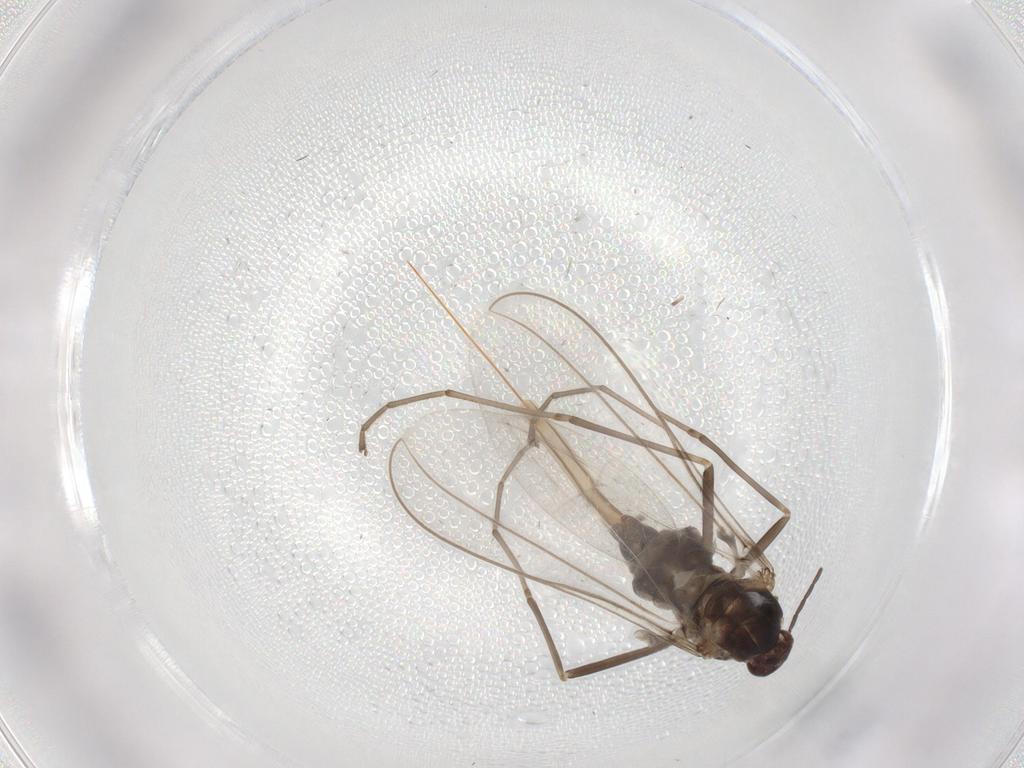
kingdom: Animalia
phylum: Arthropoda
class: Insecta
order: Diptera
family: Cecidomyiidae
